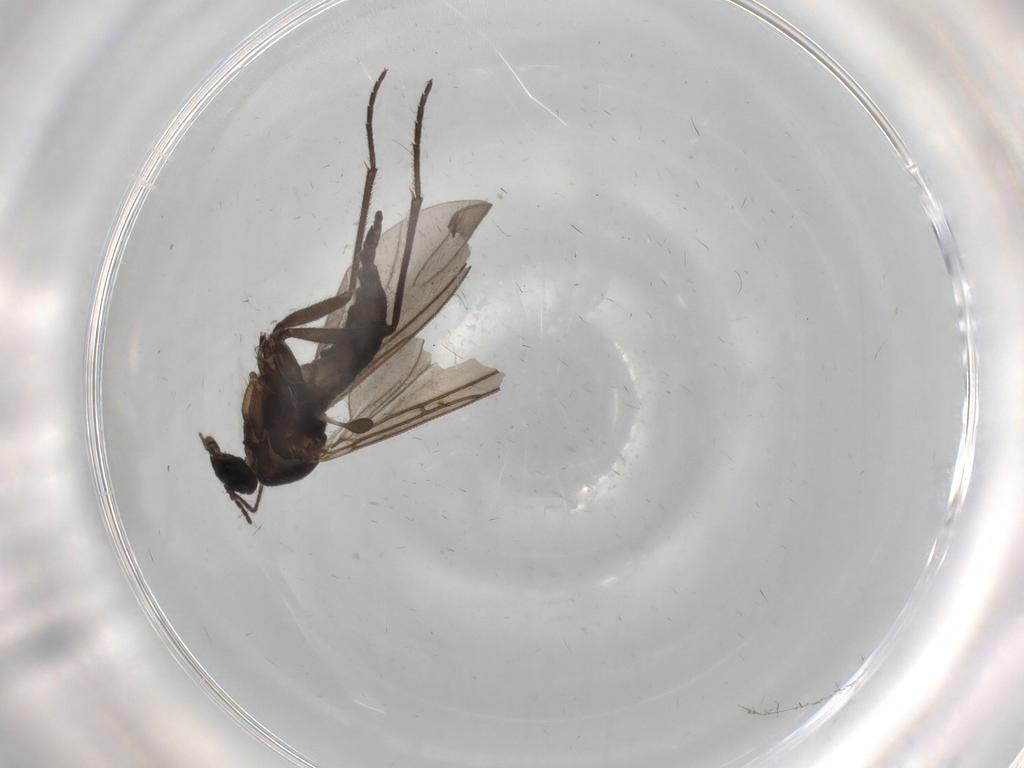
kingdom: Animalia
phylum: Arthropoda
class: Insecta
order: Diptera
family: Sciaridae
